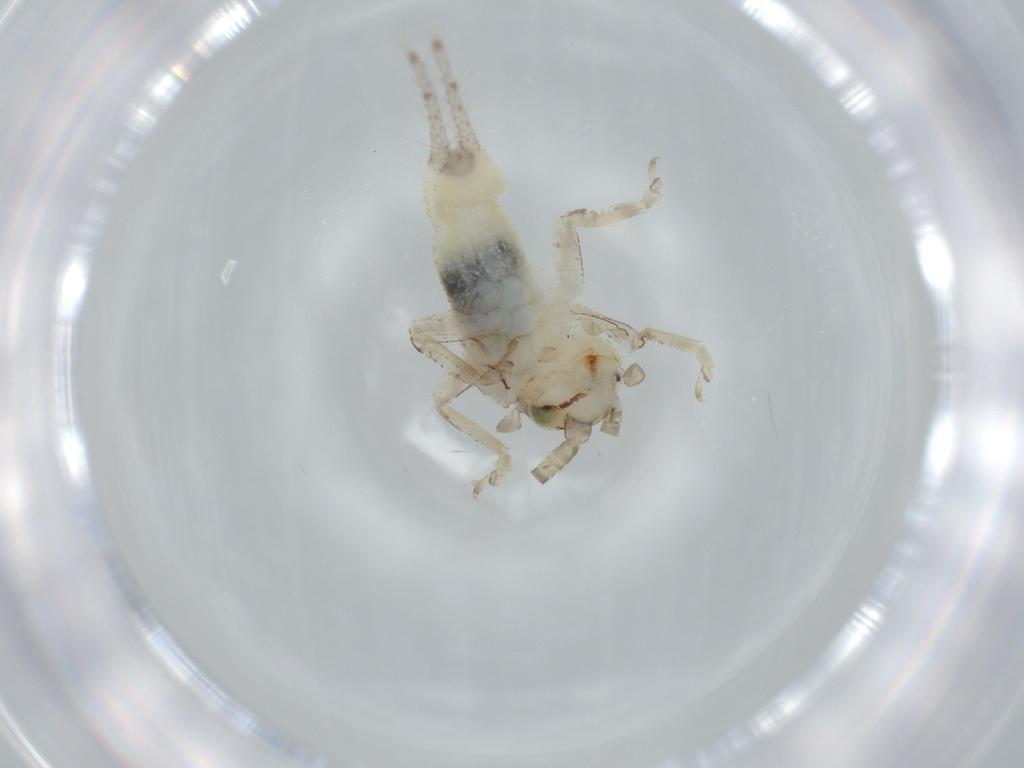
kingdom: Animalia
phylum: Arthropoda
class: Insecta
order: Orthoptera
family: Gryllidae
